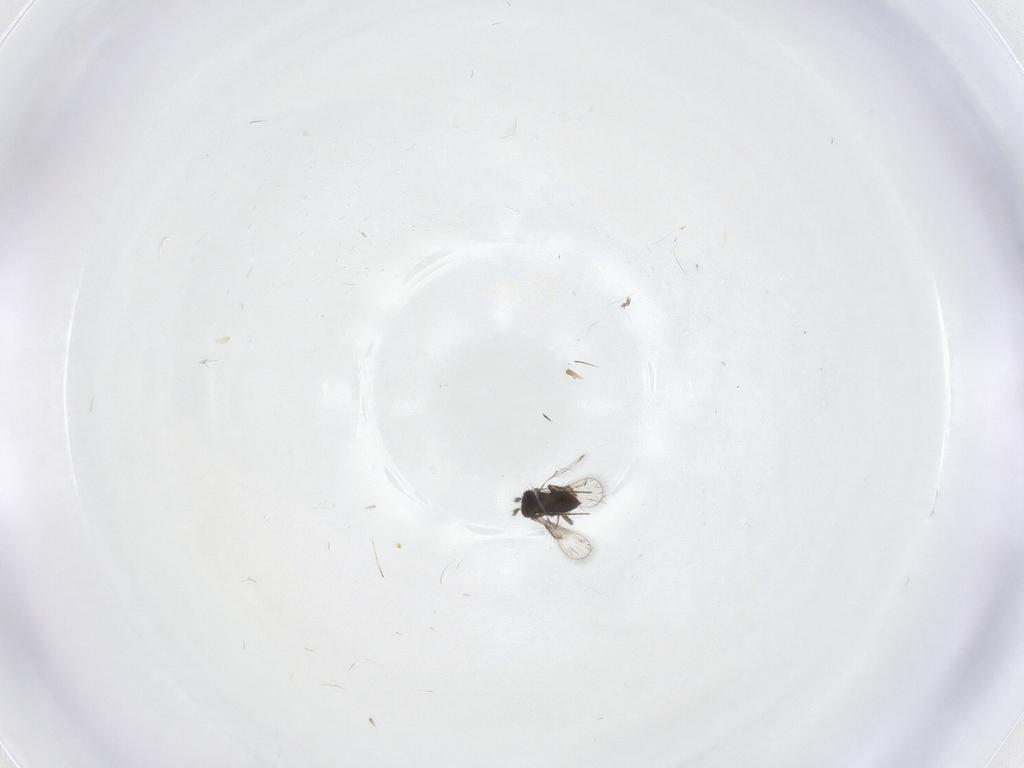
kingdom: Animalia
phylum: Arthropoda
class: Insecta
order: Hymenoptera
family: Trichogrammatidae
